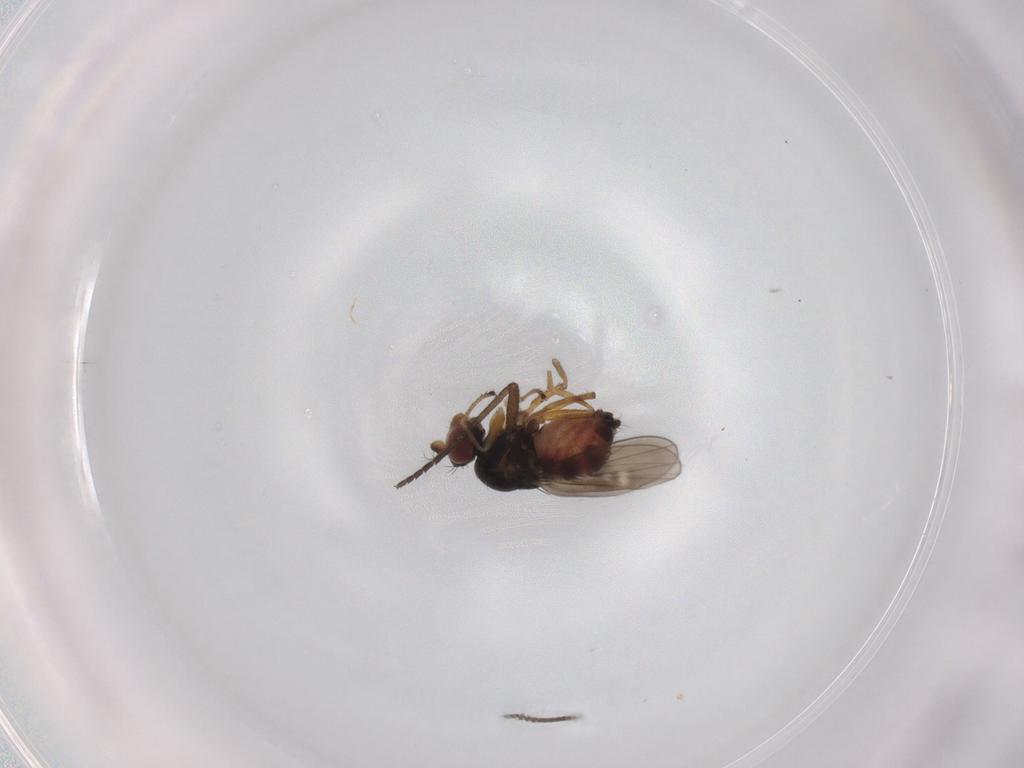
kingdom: Animalia
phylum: Arthropoda
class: Insecta
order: Diptera
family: Ephydridae
